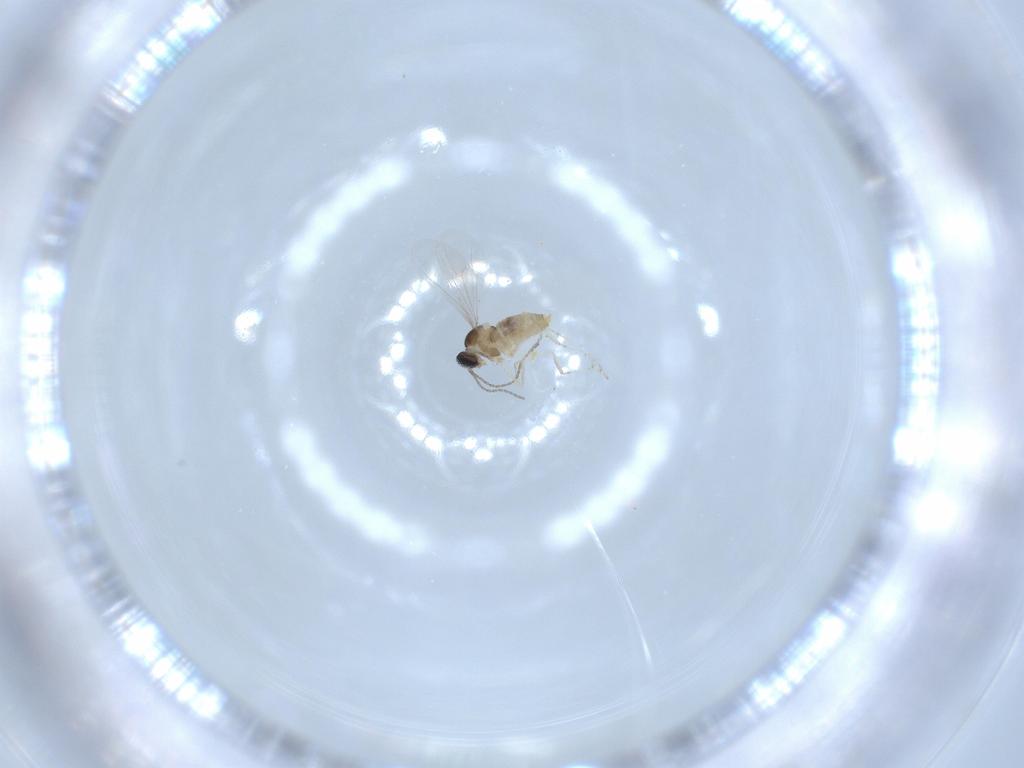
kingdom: Animalia
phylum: Arthropoda
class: Insecta
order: Diptera
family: Cecidomyiidae
